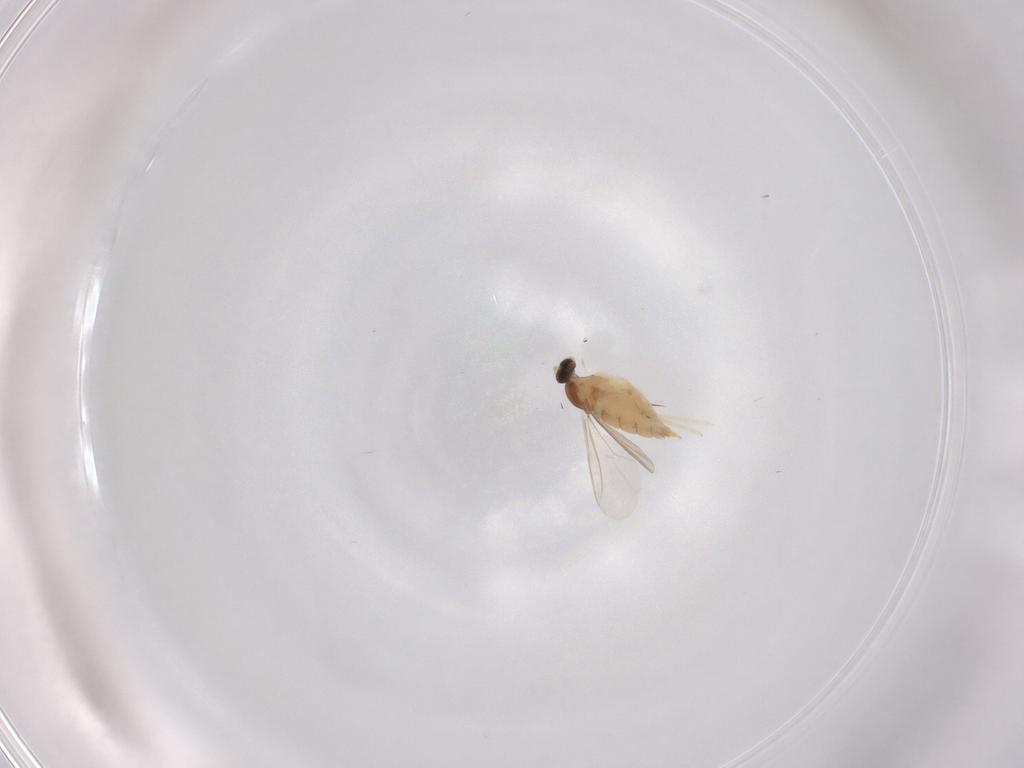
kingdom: Animalia
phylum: Arthropoda
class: Insecta
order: Diptera
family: Cecidomyiidae
